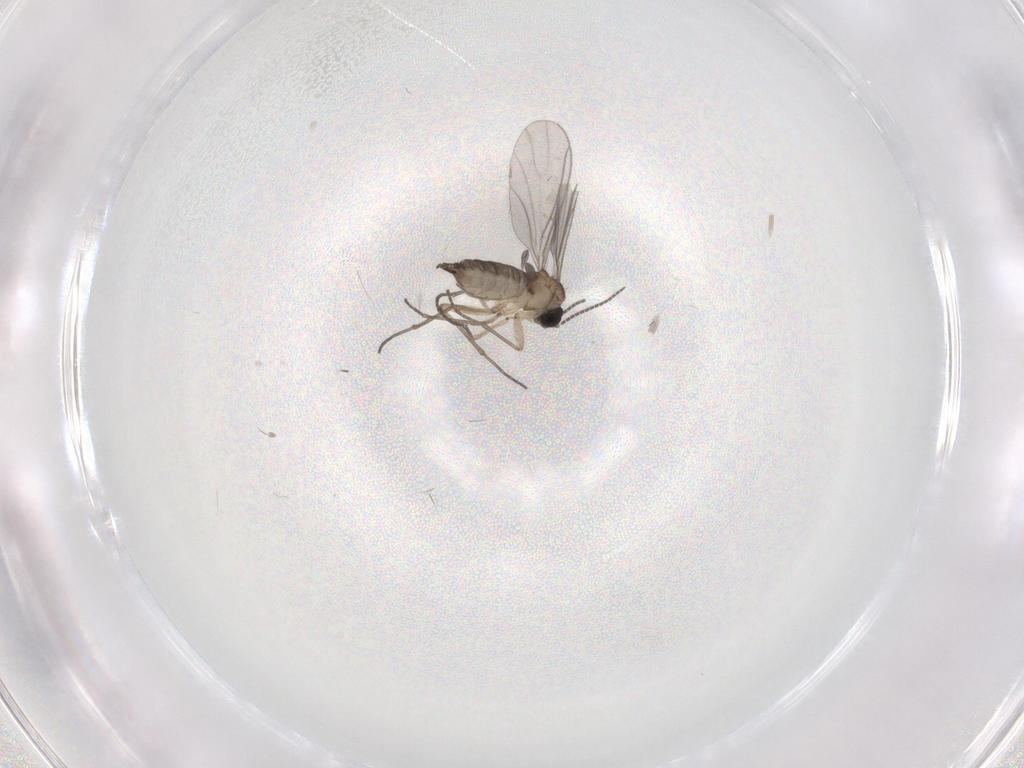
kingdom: Animalia
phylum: Arthropoda
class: Insecta
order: Diptera
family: Sciaridae
